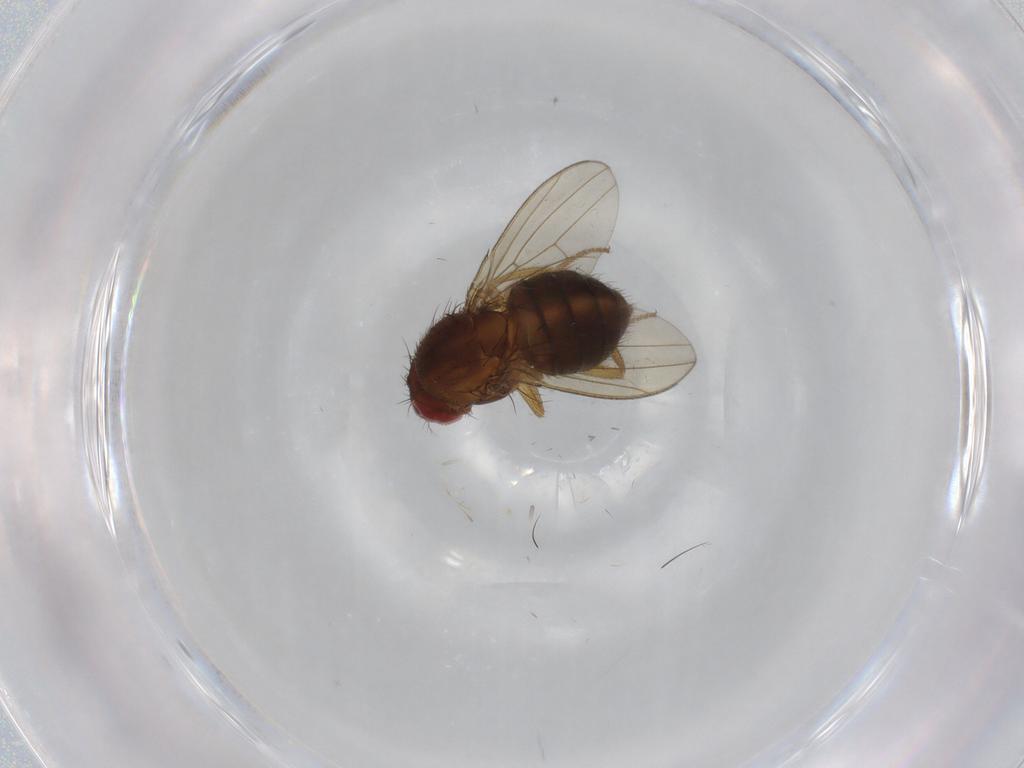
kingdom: Animalia
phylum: Arthropoda
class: Insecta
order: Diptera
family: Drosophilidae
